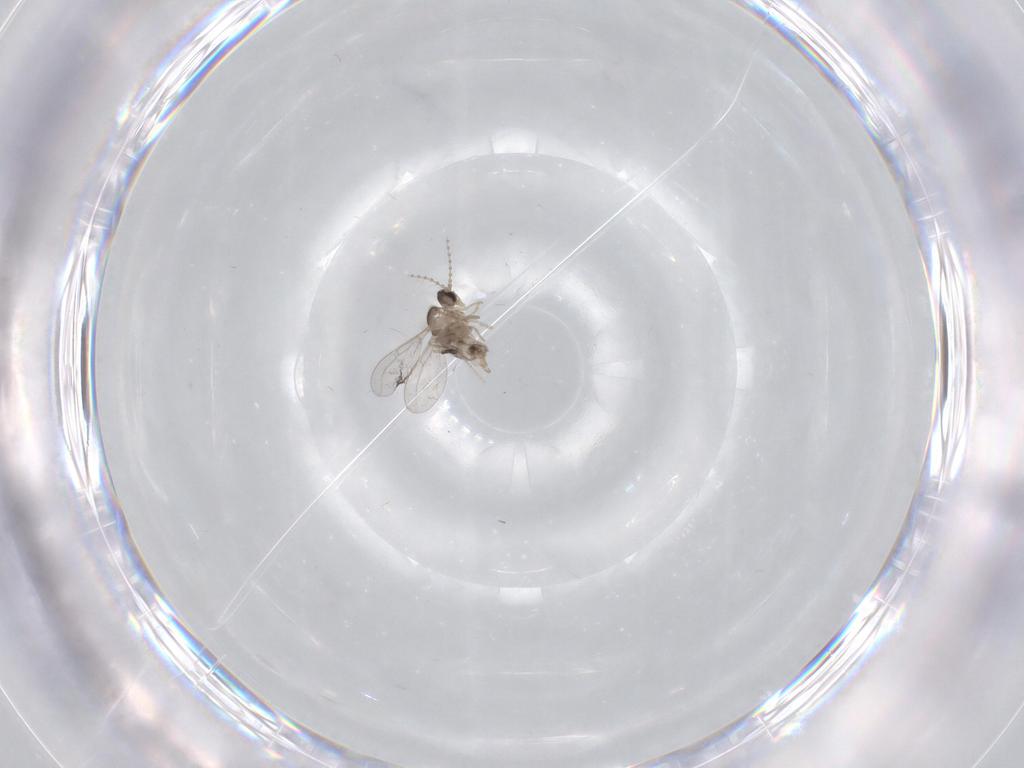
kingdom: Animalia
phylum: Arthropoda
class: Insecta
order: Diptera
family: Cecidomyiidae
